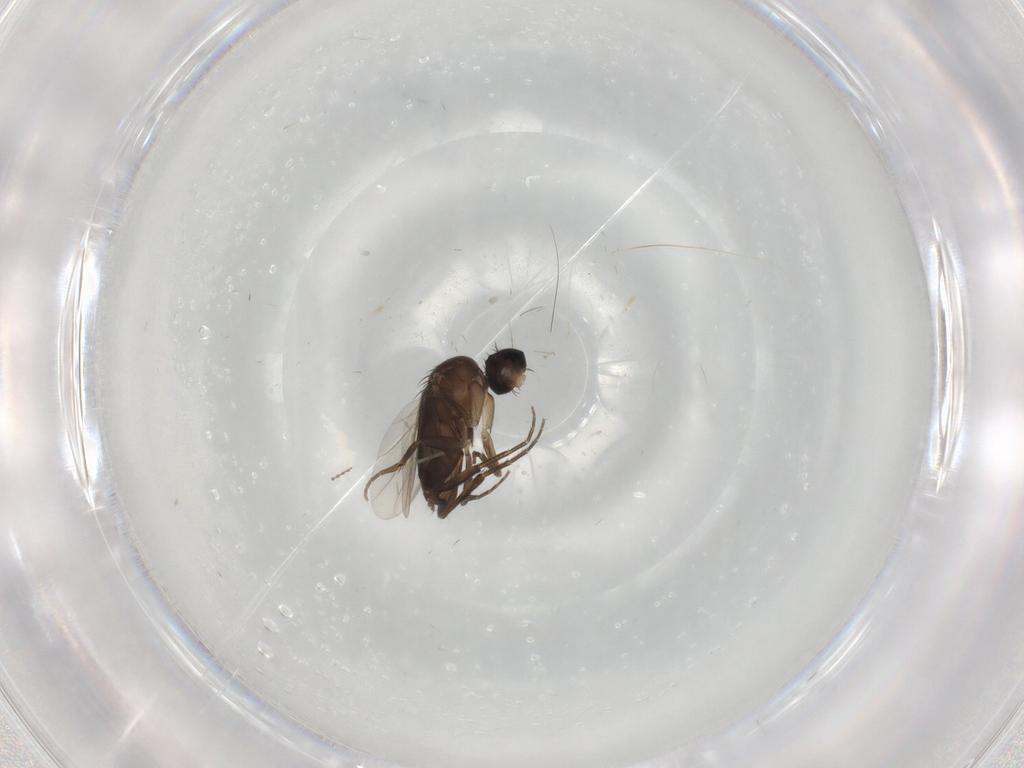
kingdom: Animalia
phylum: Arthropoda
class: Insecta
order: Diptera
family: Phoridae
